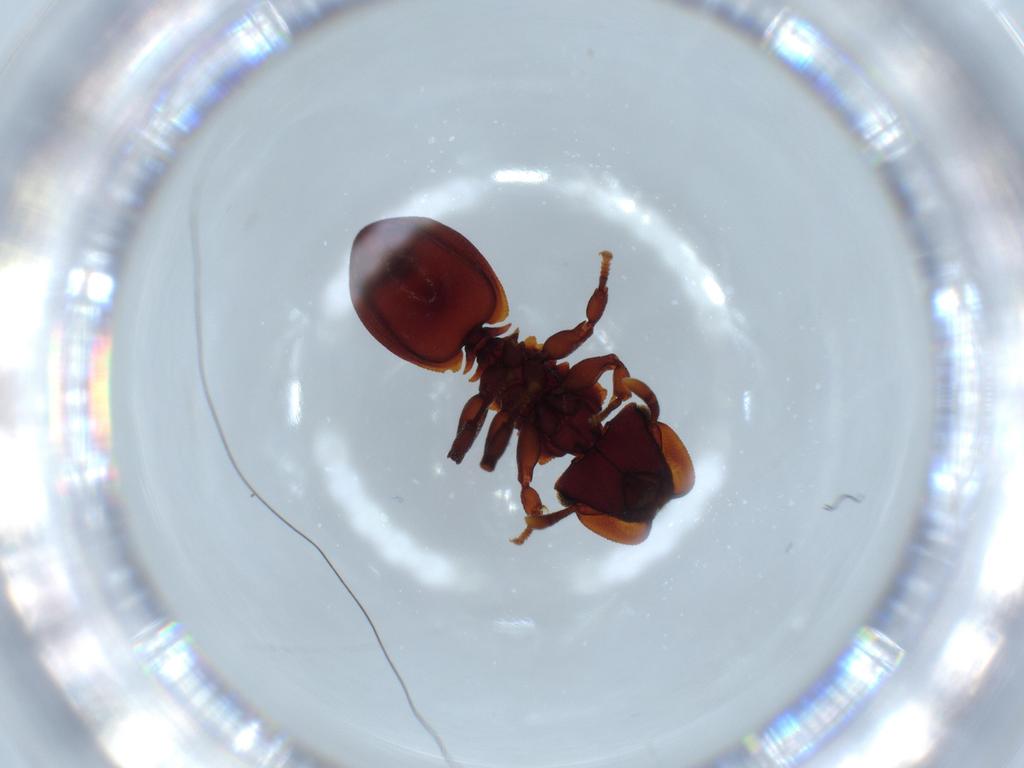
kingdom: Animalia
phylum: Arthropoda
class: Insecta
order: Hymenoptera
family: Formicidae
